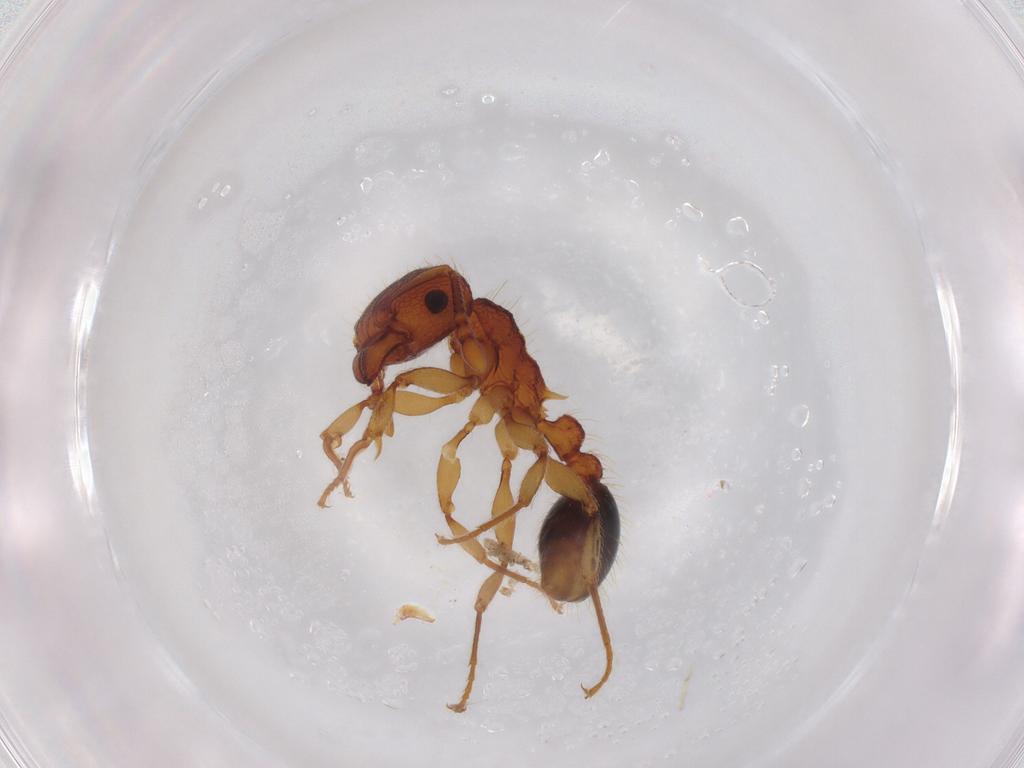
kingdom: Animalia
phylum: Arthropoda
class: Insecta
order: Hymenoptera
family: Formicidae
